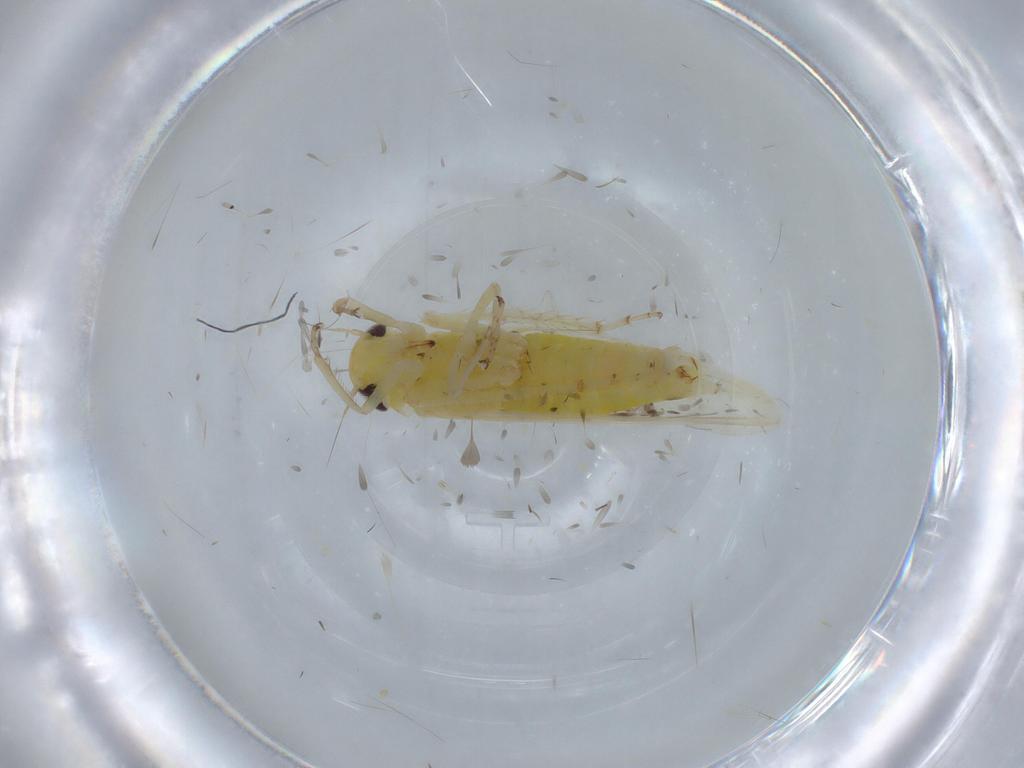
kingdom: Animalia
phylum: Arthropoda
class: Insecta
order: Hemiptera
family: Cicadellidae
